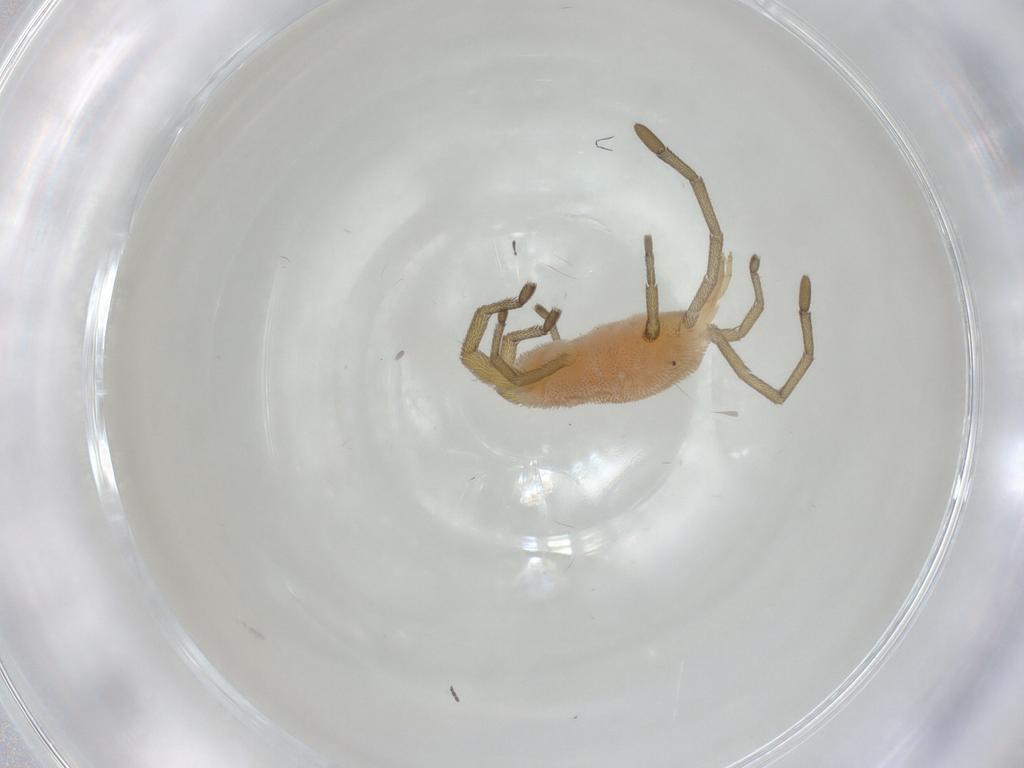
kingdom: Animalia
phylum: Arthropoda
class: Arachnida
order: Trombidiformes
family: Smarididae
